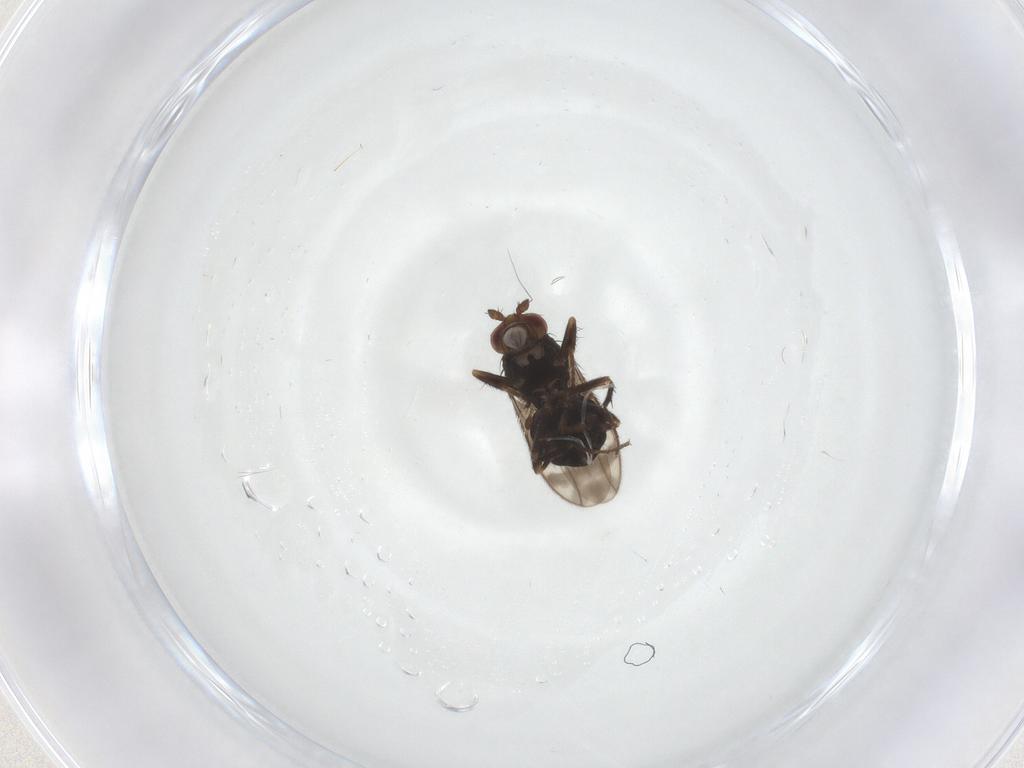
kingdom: Animalia
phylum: Arthropoda
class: Insecta
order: Diptera
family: Sphaeroceridae
